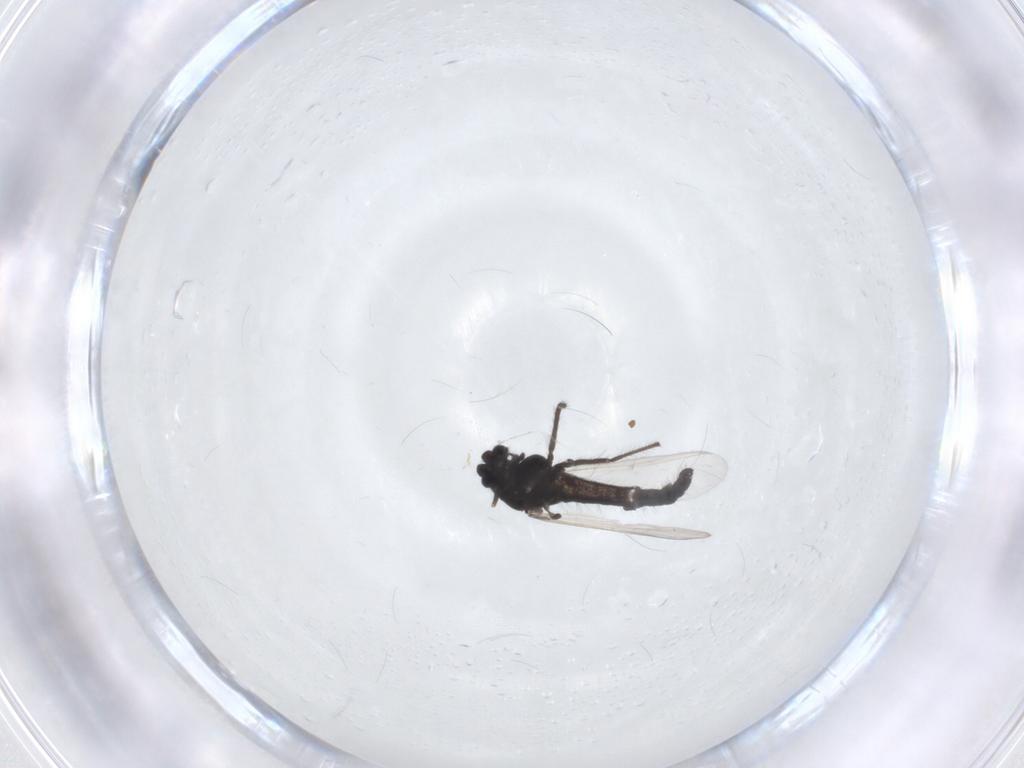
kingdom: Animalia
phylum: Arthropoda
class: Insecta
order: Diptera
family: Chironomidae
